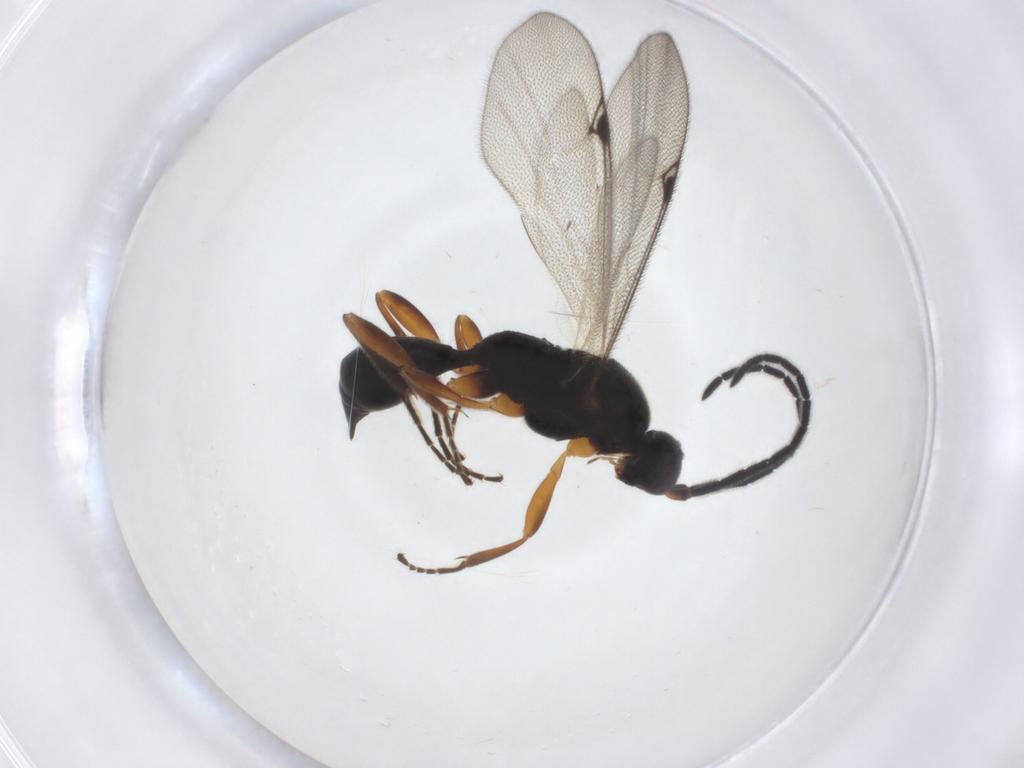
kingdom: Animalia
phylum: Arthropoda
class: Insecta
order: Hymenoptera
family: Proctotrupidae
